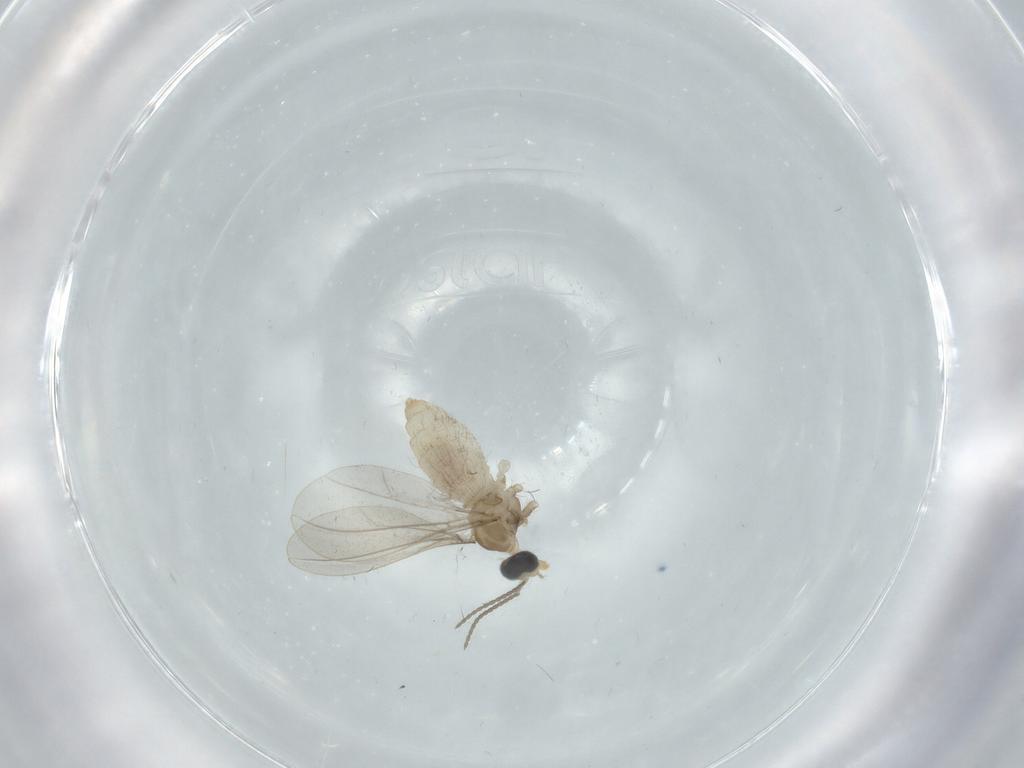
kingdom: Animalia
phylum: Arthropoda
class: Insecta
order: Diptera
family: Cecidomyiidae
